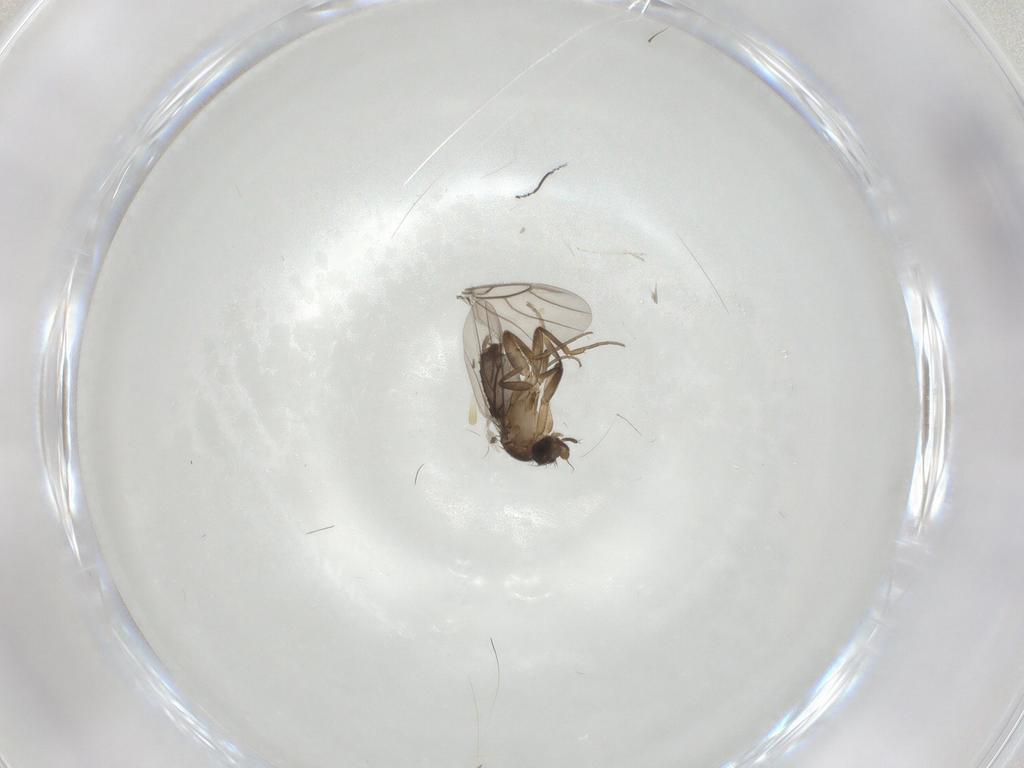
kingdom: Animalia
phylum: Arthropoda
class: Insecta
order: Diptera
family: Phoridae
